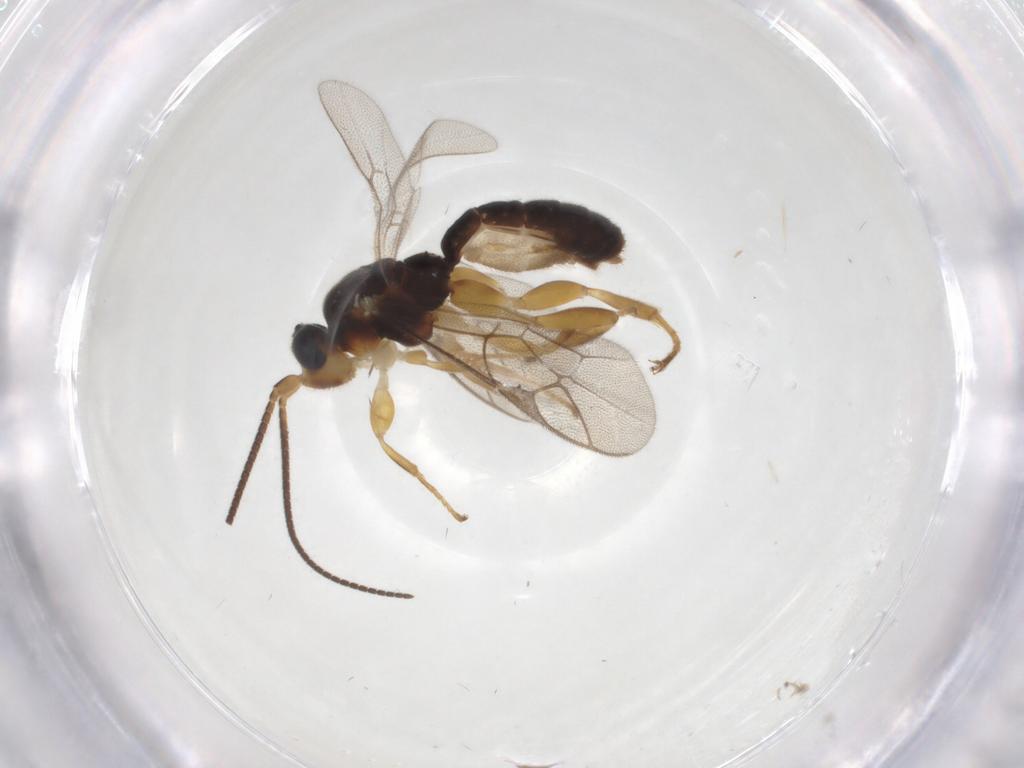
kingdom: Animalia
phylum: Arthropoda
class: Insecta
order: Hymenoptera
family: Ichneumonidae
